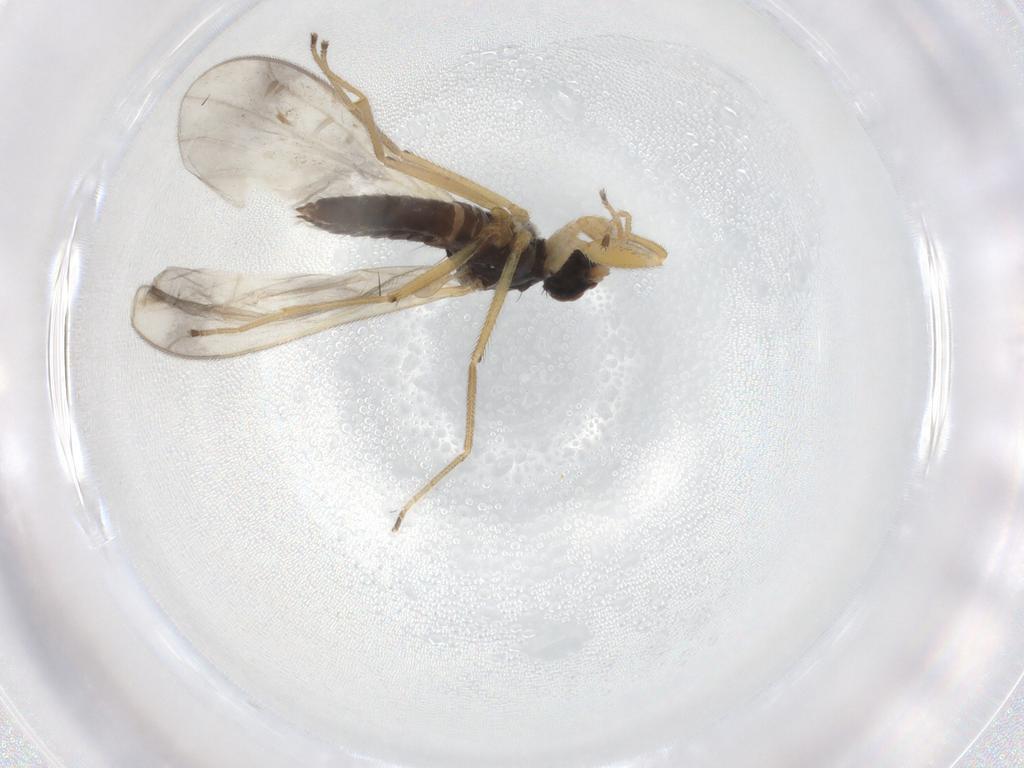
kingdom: Animalia
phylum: Arthropoda
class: Insecta
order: Diptera
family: Empididae
